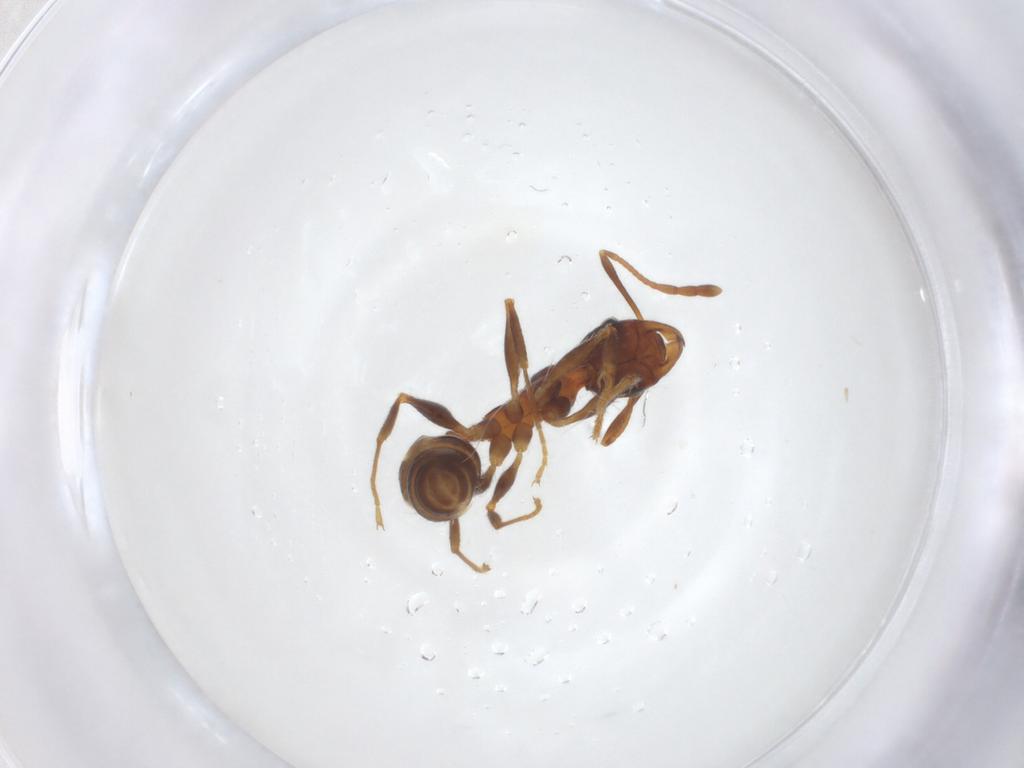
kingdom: Animalia
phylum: Arthropoda
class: Insecta
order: Hymenoptera
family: Formicidae
